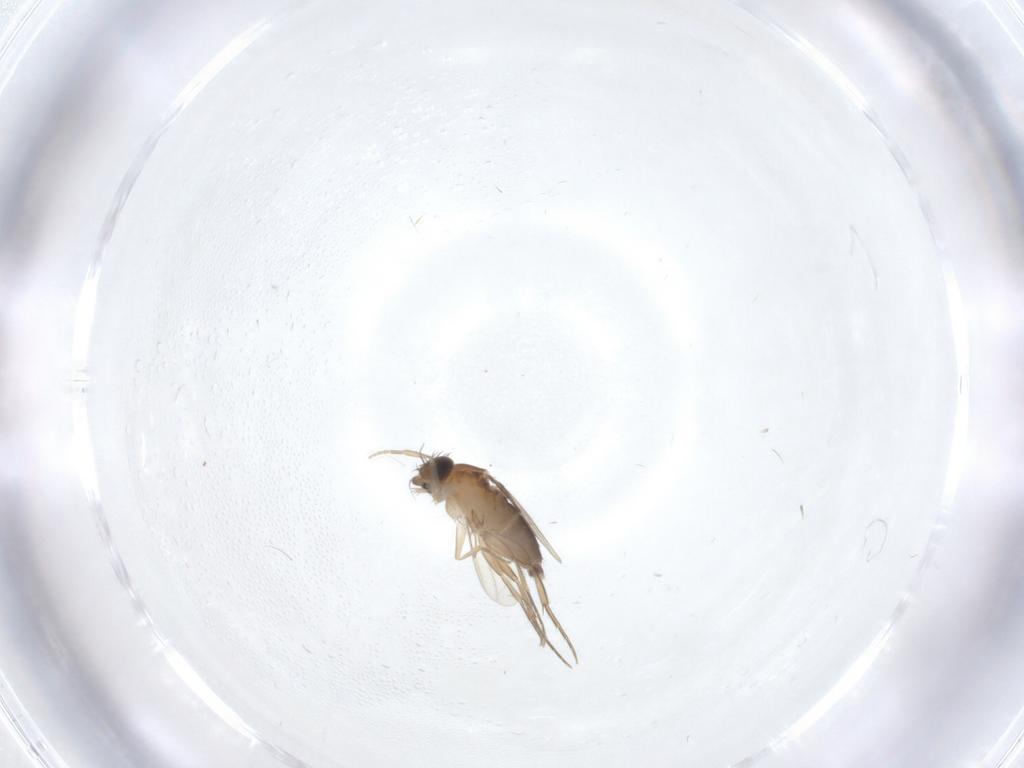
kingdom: Animalia
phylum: Arthropoda
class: Insecta
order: Diptera
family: Phoridae
